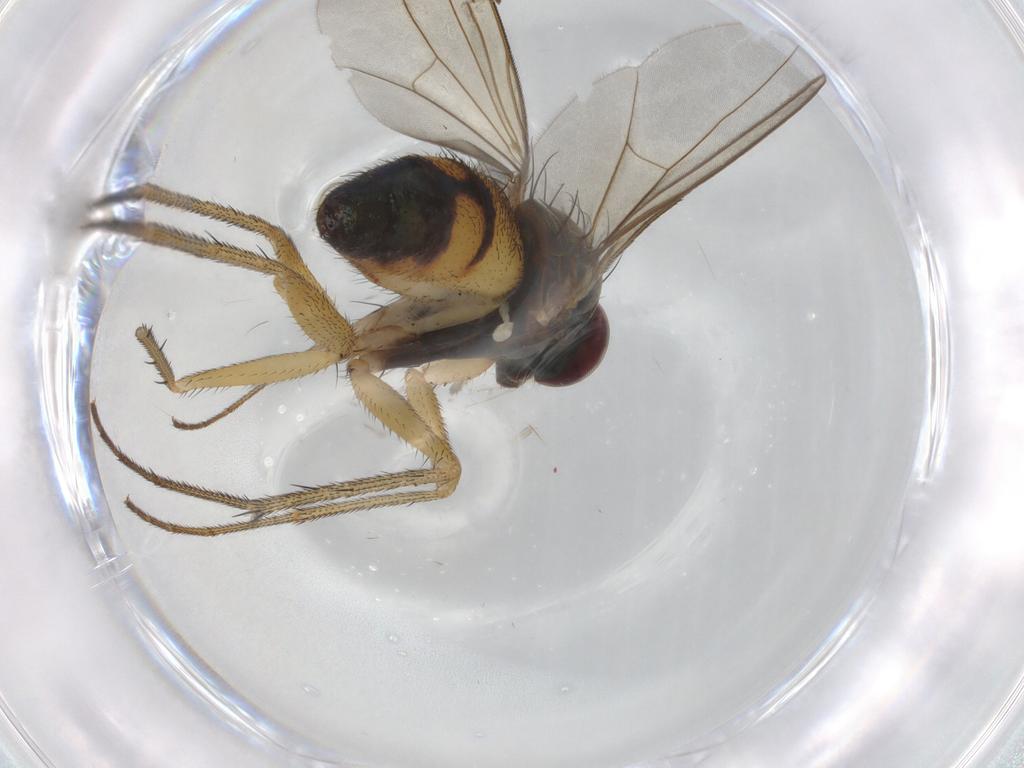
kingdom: Animalia
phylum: Arthropoda
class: Insecta
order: Diptera
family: Dolichopodidae
